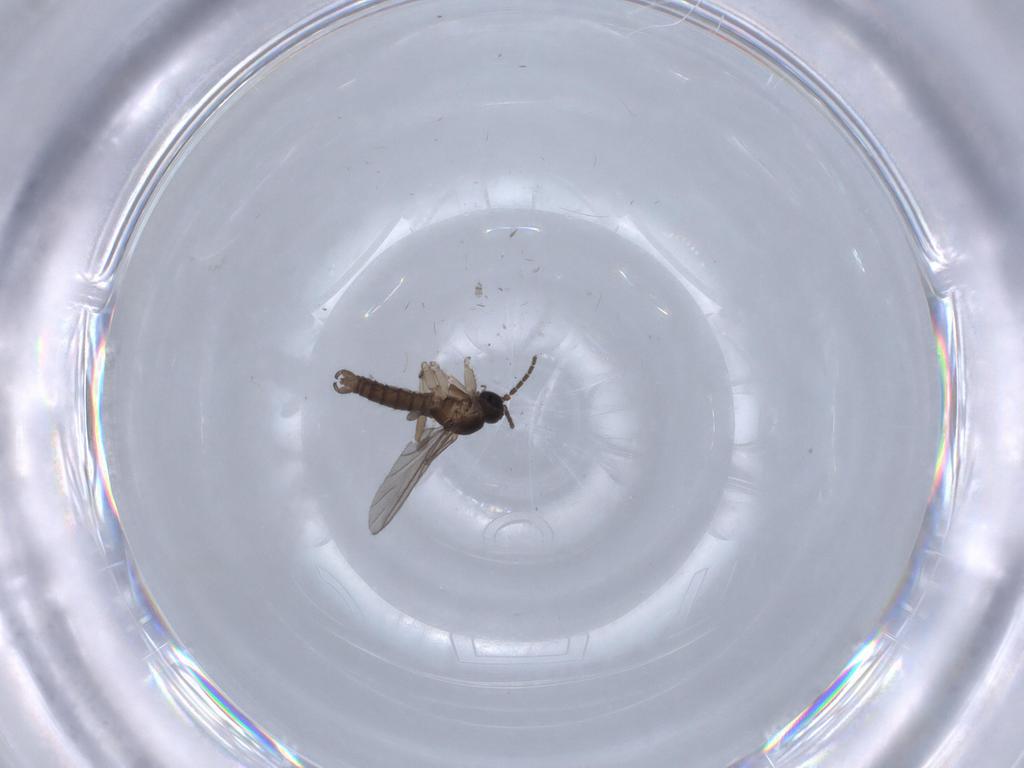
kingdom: Animalia
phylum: Arthropoda
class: Insecta
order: Diptera
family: Sciaridae
